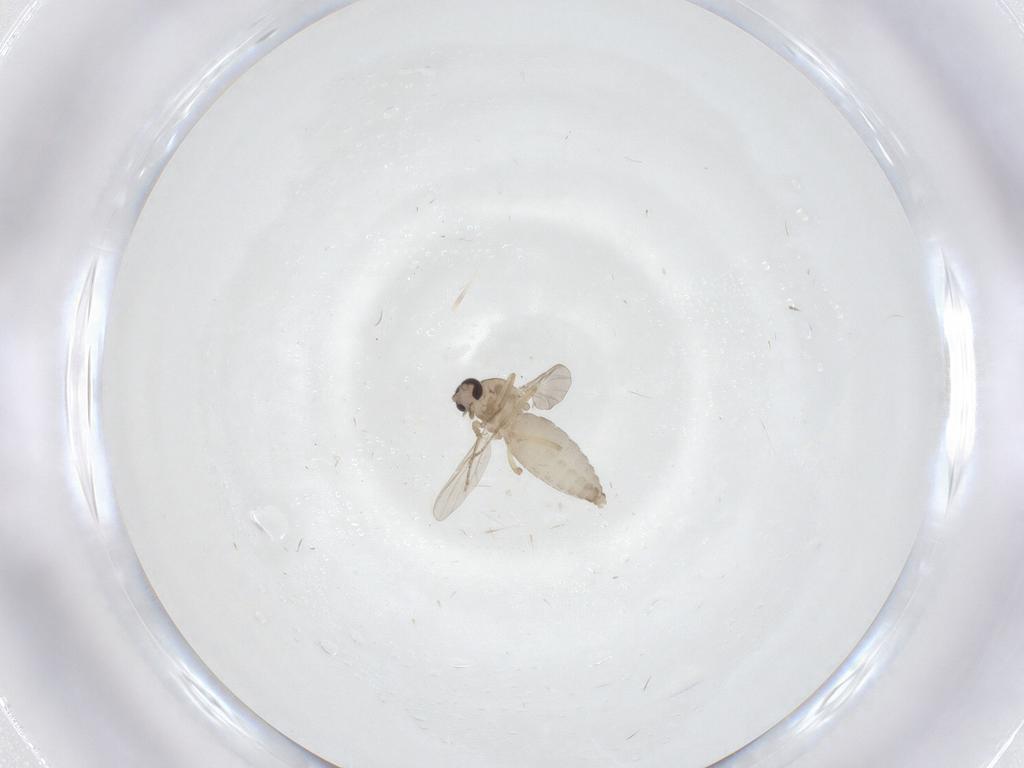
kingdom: Animalia
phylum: Arthropoda
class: Insecta
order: Diptera
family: Ceratopogonidae
